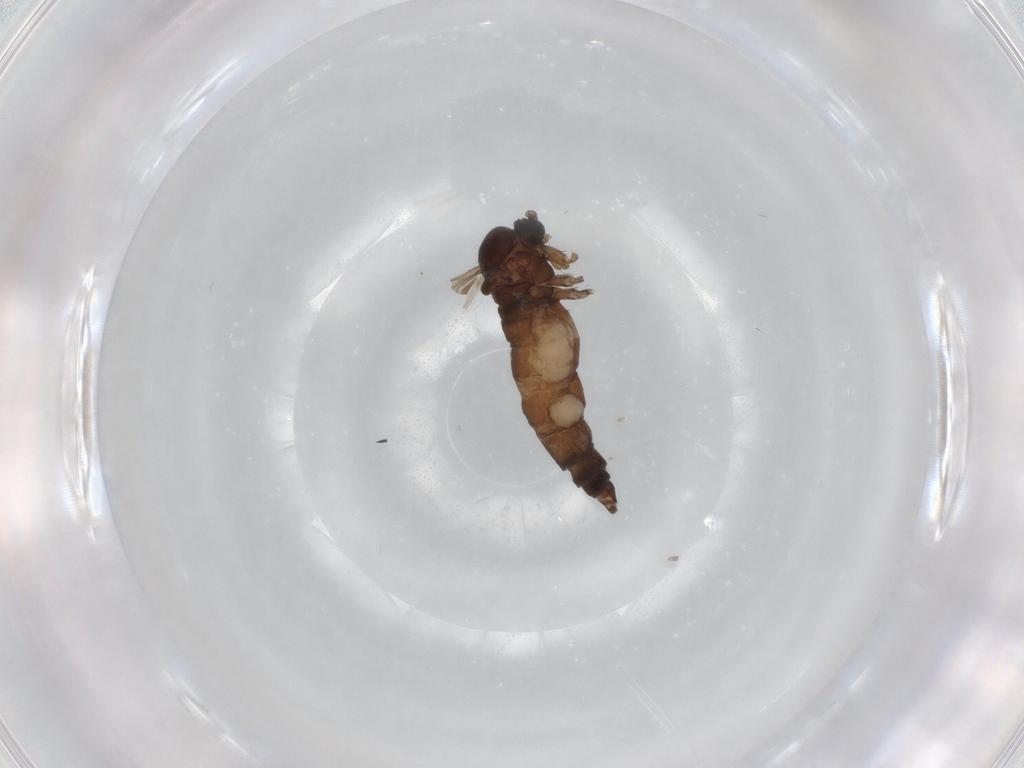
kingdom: Animalia
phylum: Arthropoda
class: Insecta
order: Diptera
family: Sciaridae
